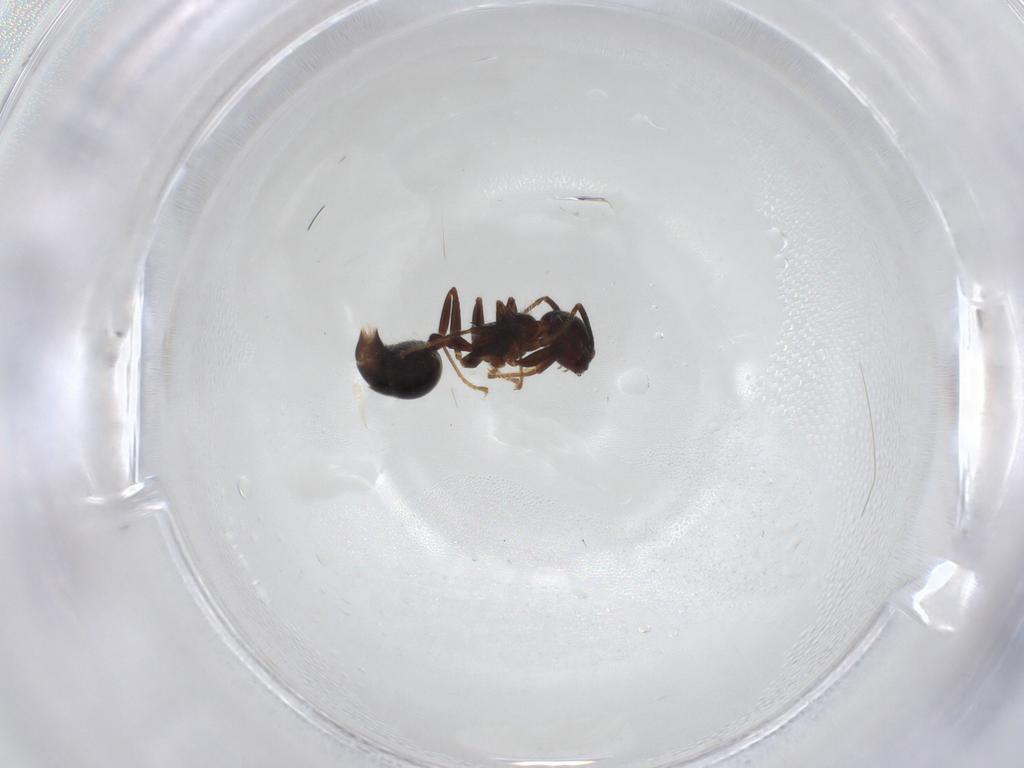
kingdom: Animalia
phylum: Arthropoda
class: Insecta
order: Hymenoptera
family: Formicidae
